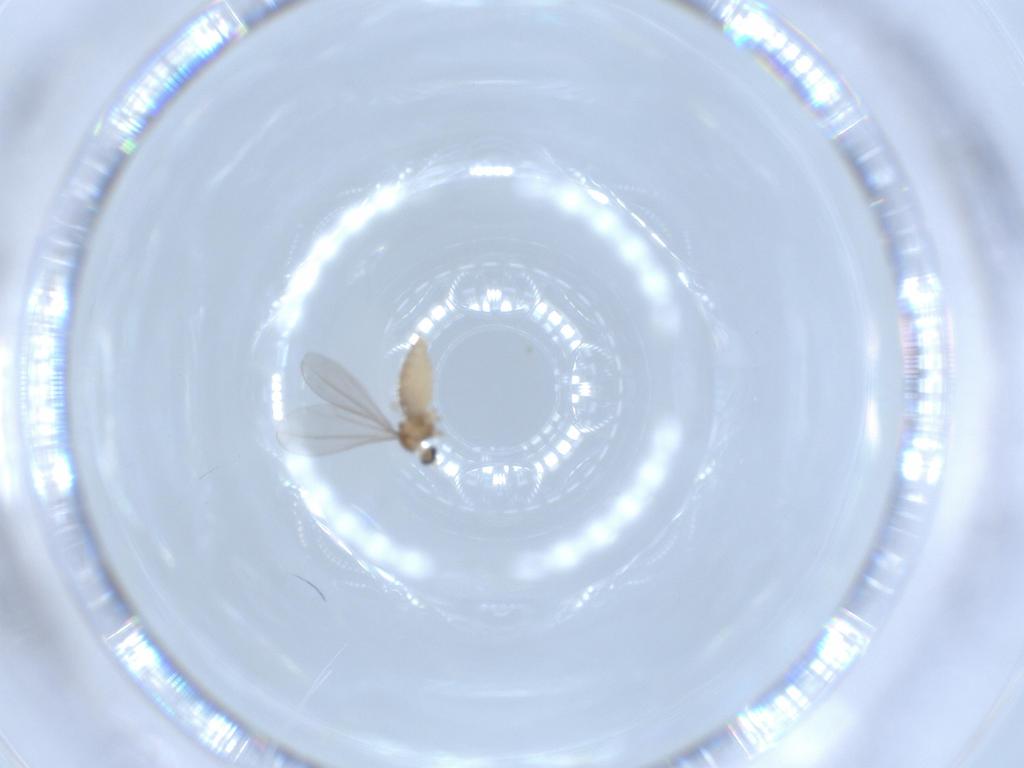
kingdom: Animalia
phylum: Arthropoda
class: Insecta
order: Diptera
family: Cecidomyiidae
